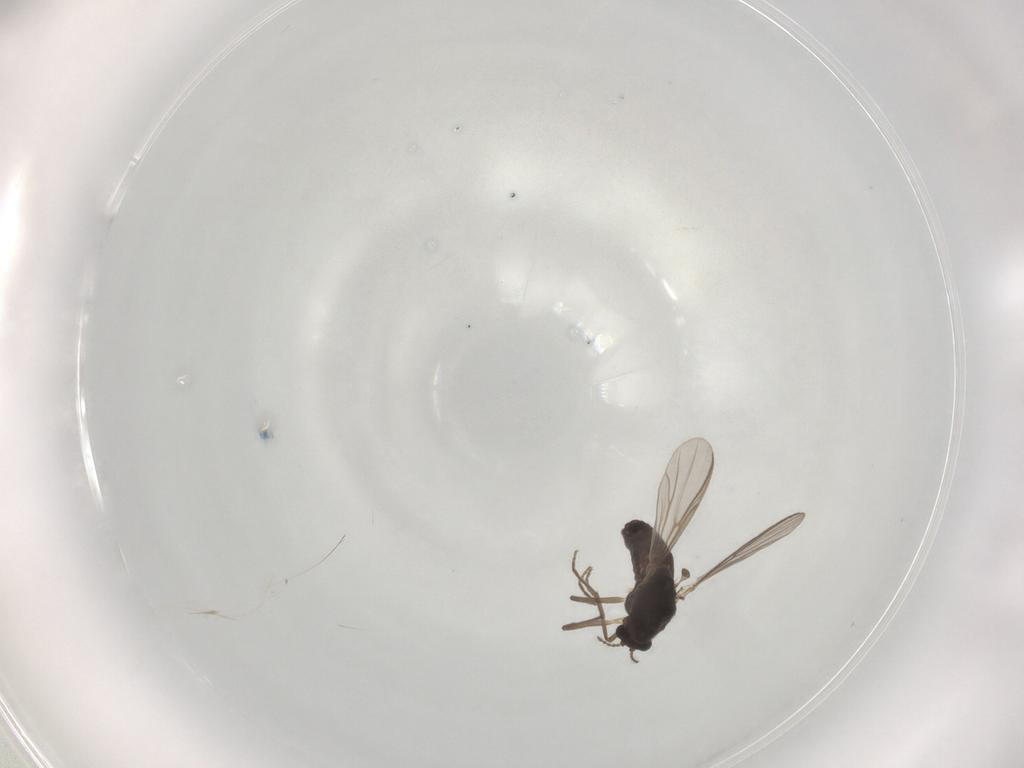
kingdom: Animalia
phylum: Arthropoda
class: Insecta
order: Diptera
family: Chironomidae
